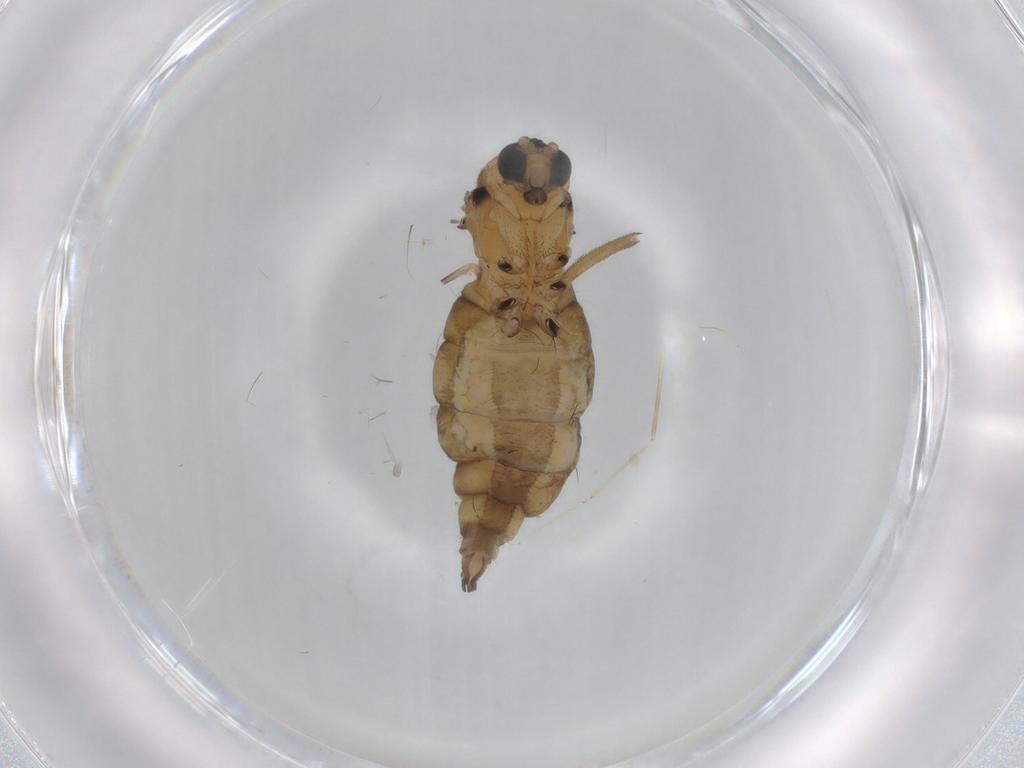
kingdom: Animalia
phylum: Arthropoda
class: Insecta
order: Diptera
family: Sciaridae
